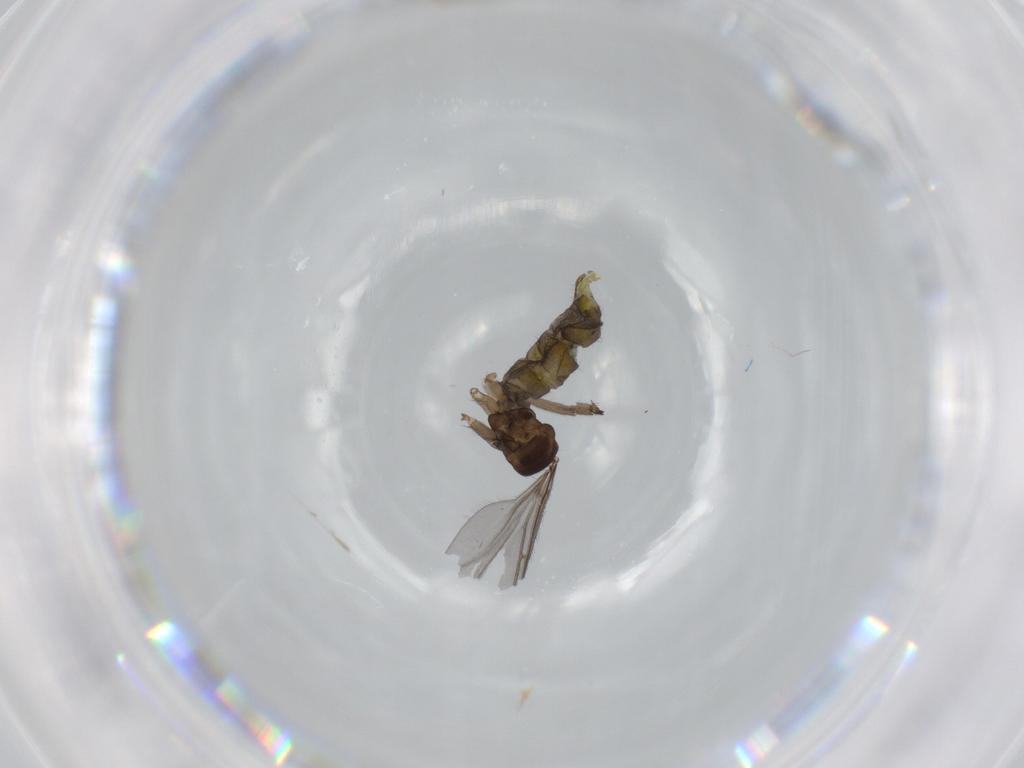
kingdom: Animalia
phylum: Arthropoda
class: Insecta
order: Diptera
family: Sciaridae
